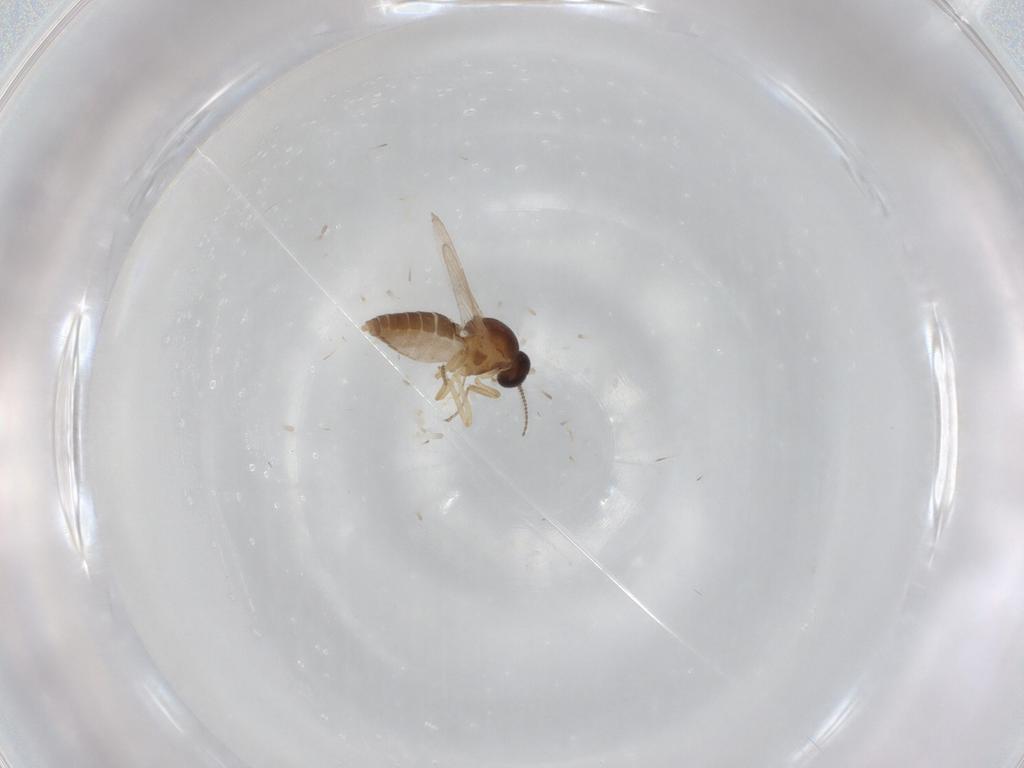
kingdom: Animalia
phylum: Arthropoda
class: Insecta
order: Diptera
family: Ceratopogonidae
